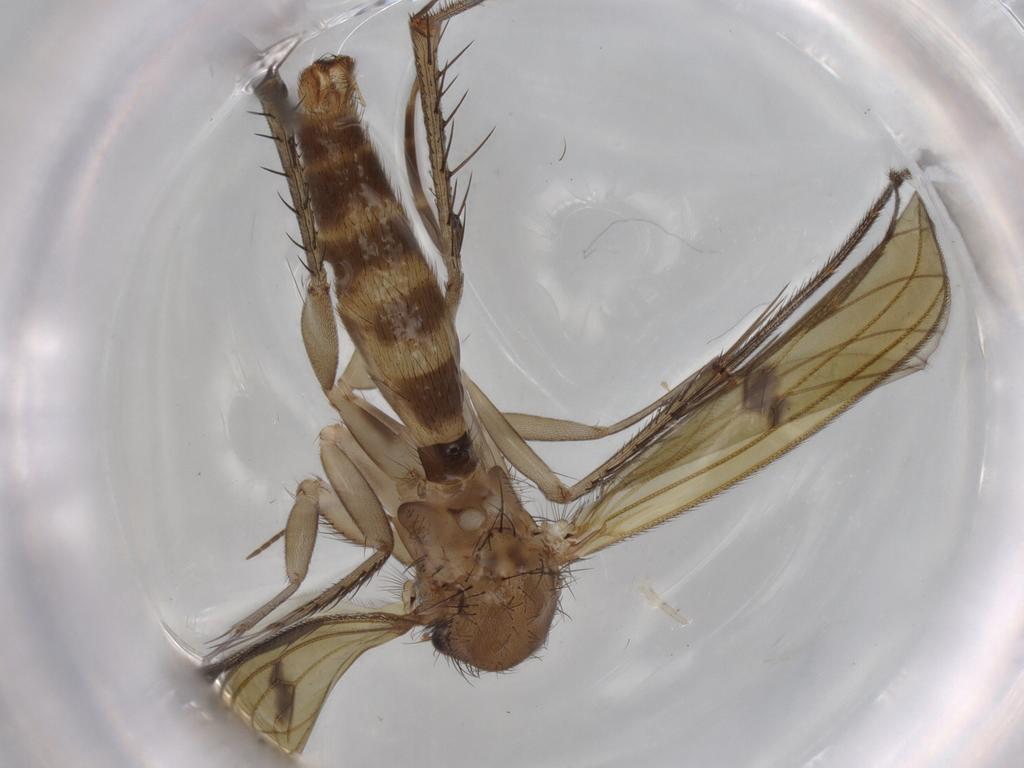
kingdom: Animalia
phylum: Arthropoda
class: Insecta
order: Diptera
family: Mycetophilidae
